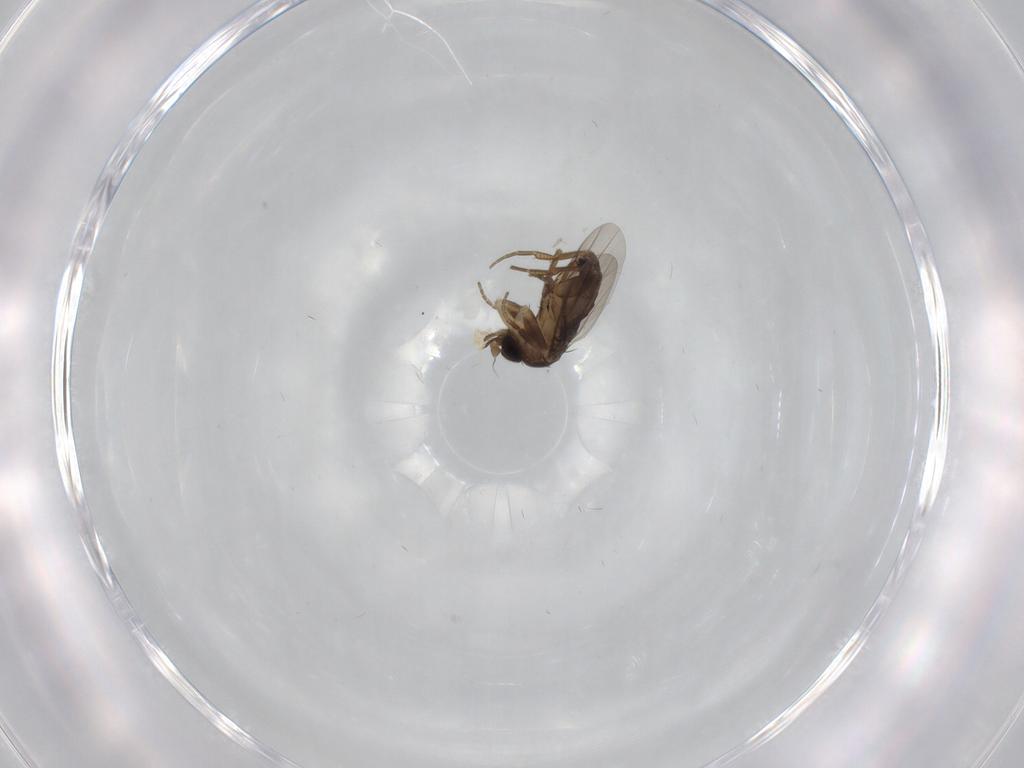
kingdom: Animalia
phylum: Arthropoda
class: Insecta
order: Diptera
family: Phoridae
